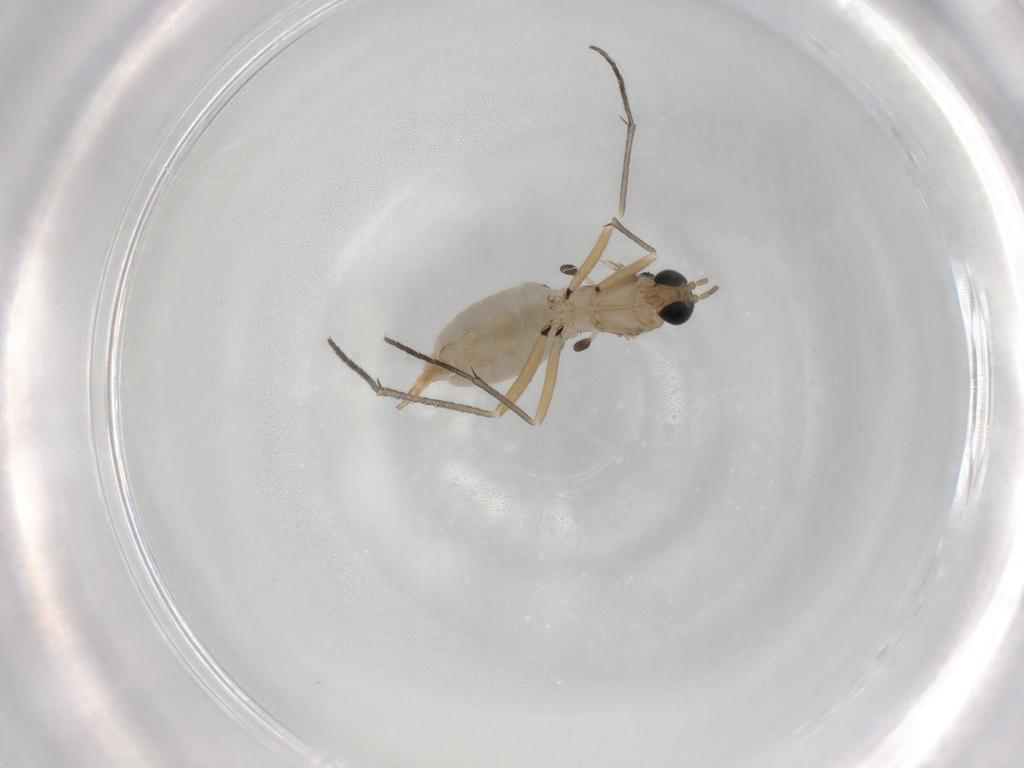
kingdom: Animalia
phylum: Arthropoda
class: Insecta
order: Diptera
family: Sciaridae
